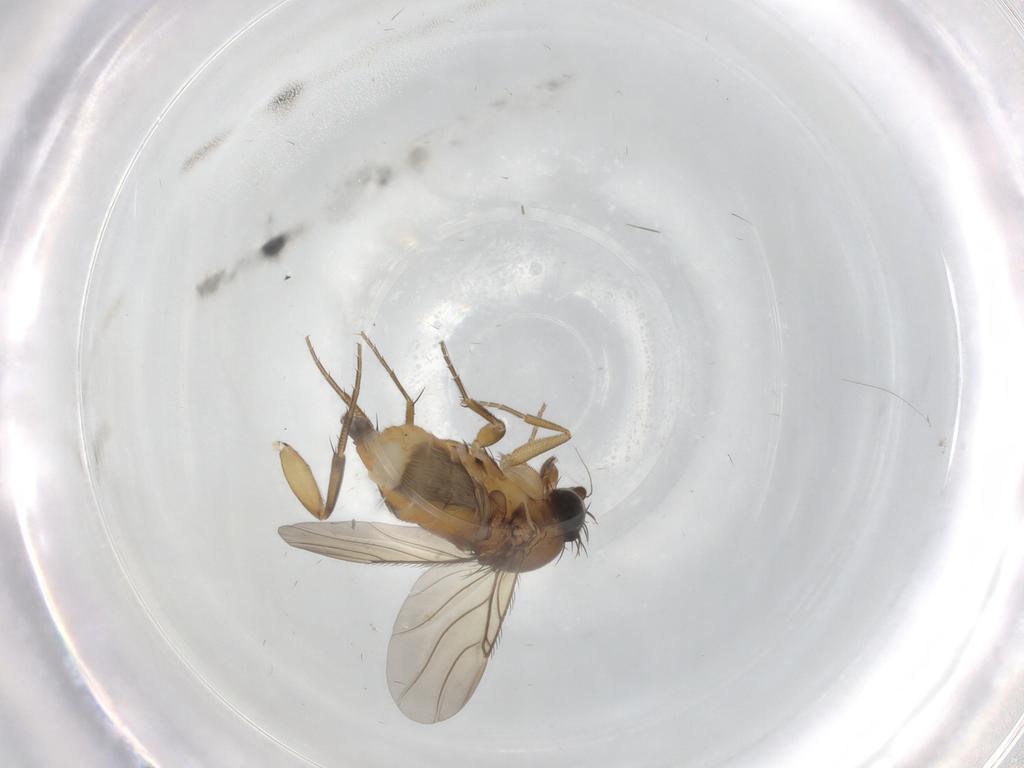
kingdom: Animalia
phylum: Arthropoda
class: Insecta
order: Diptera
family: Phoridae
